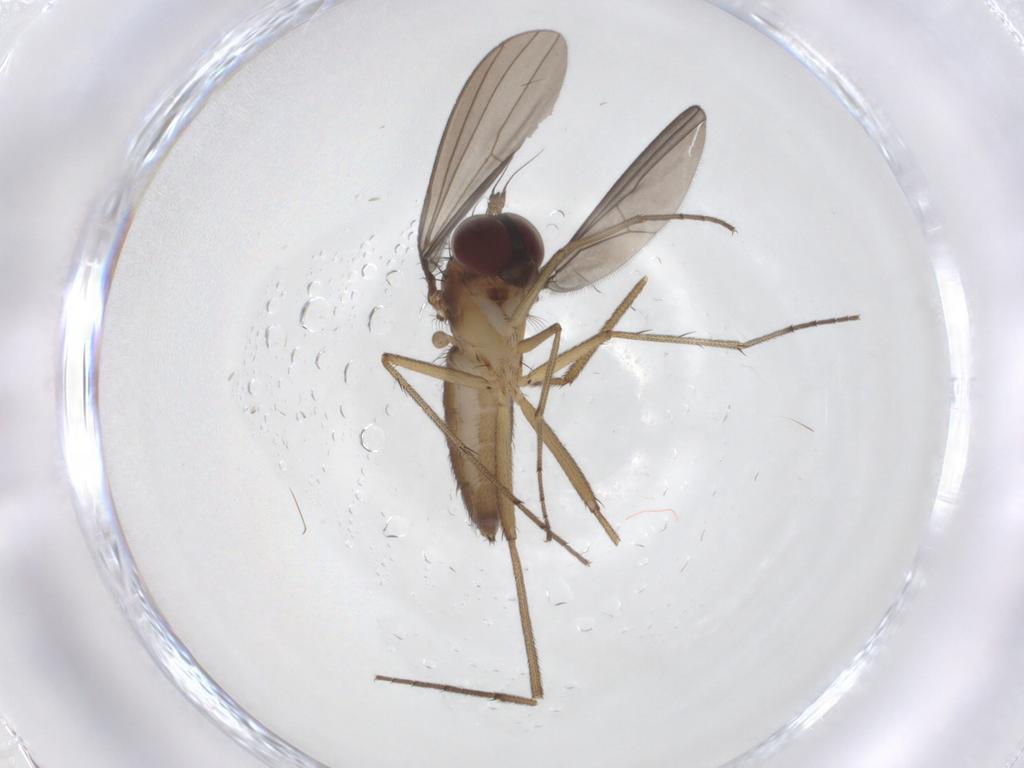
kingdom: Animalia
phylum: Arthropoda
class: Insecta
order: Diptera
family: Dolichopodidae
